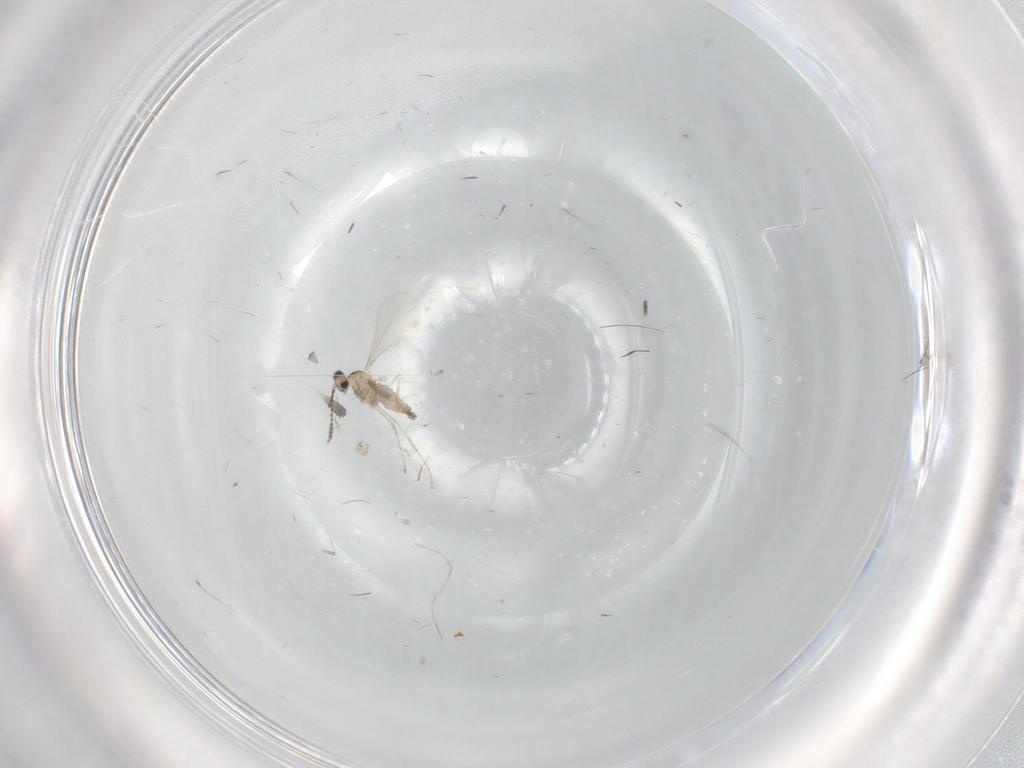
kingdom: Animalia
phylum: Arthropoda
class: Insecta
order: Diptera
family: Cecidomyiidae
